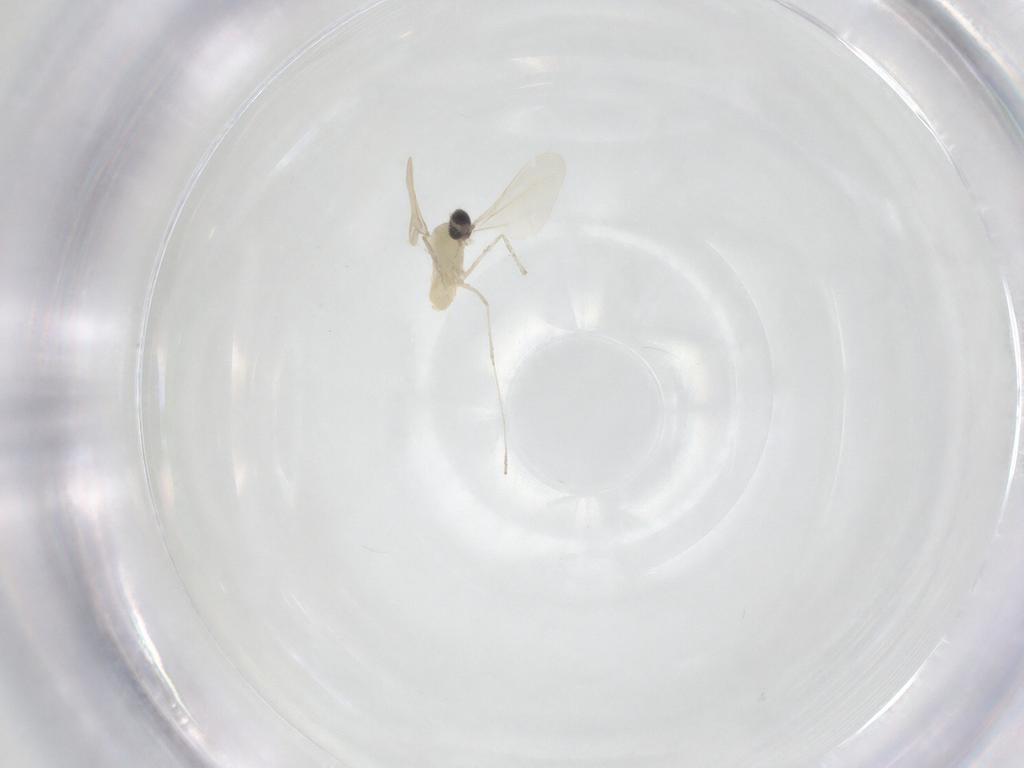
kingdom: Animalia
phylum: Arthropoda
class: Insecta
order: Diptera
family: Cecidomyiidae
